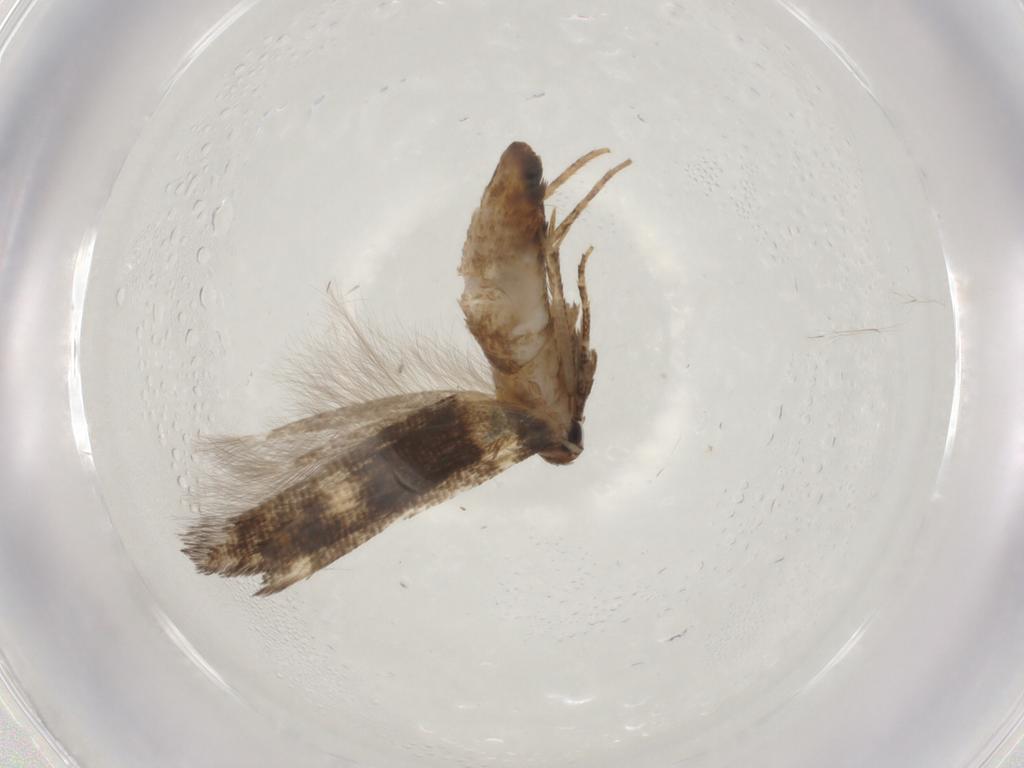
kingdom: Animalia
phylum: Arthropoda
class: Insecta
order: Lepidoptera
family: Cosmopterigidae
